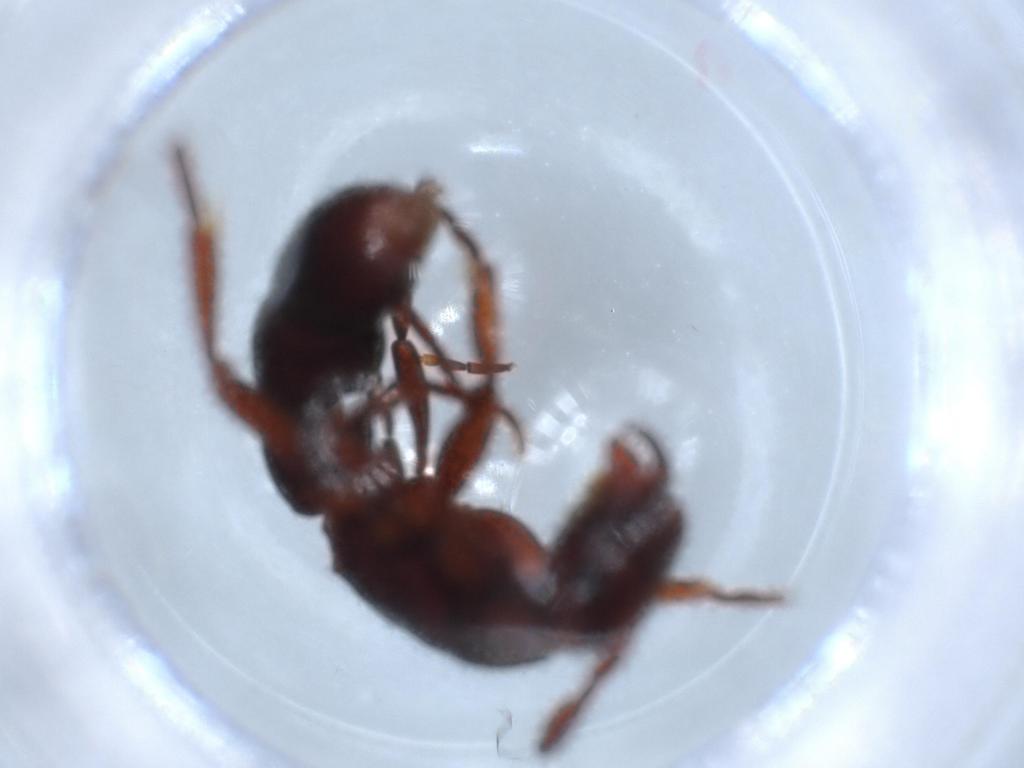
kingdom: Animalia
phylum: Arthropoda
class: Insecta
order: Hymenoptera
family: Formicidae
